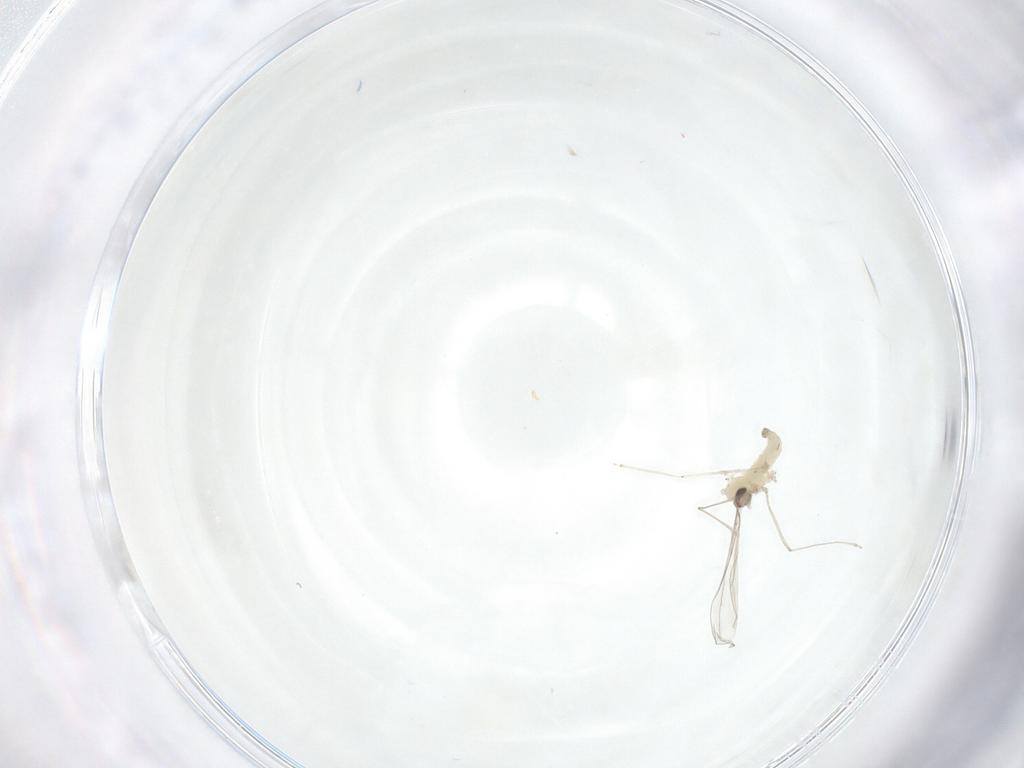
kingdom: Animalia
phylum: Arthropoda
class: Insecta
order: Diptera
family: Cecidomyiidae
